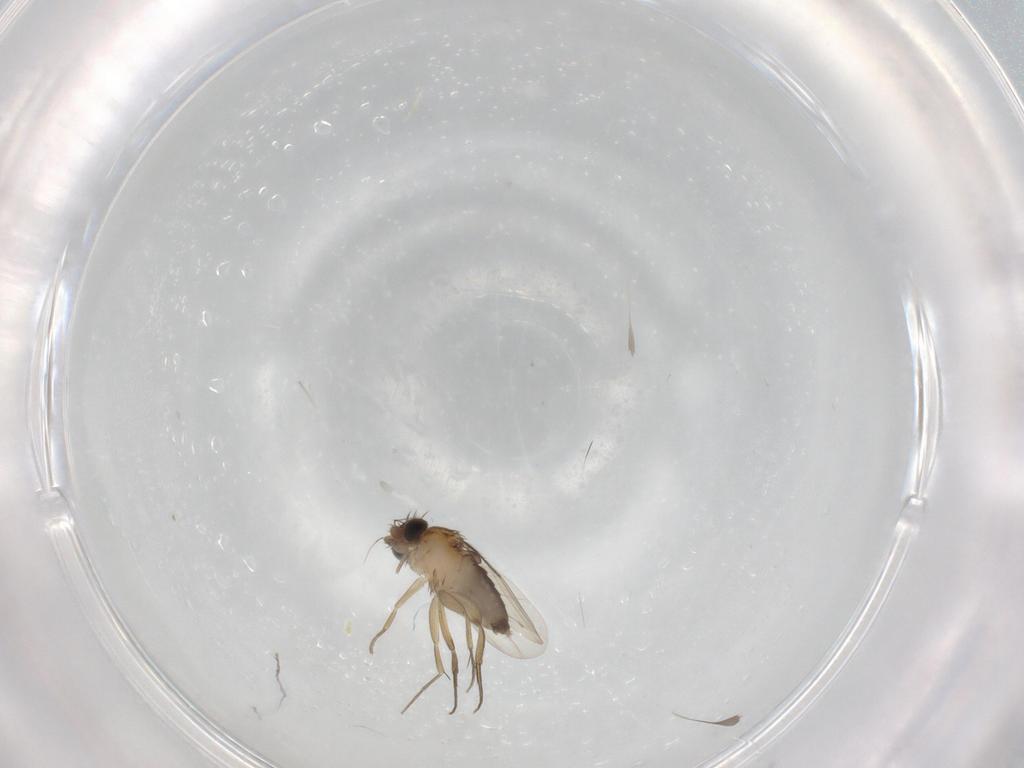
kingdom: Animalia
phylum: Arthropoda
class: Insecta
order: Diptera
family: Phoridae
